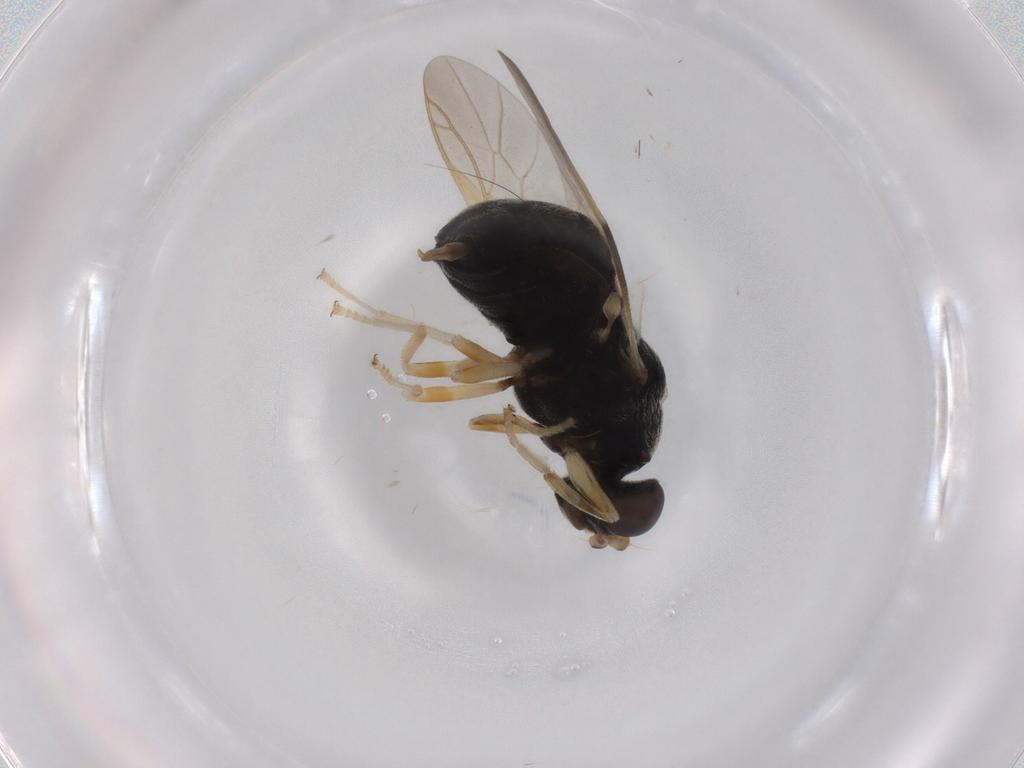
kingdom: Animalia
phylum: Arthropoda
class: Insecta
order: Diptera
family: Stratiomyidae
